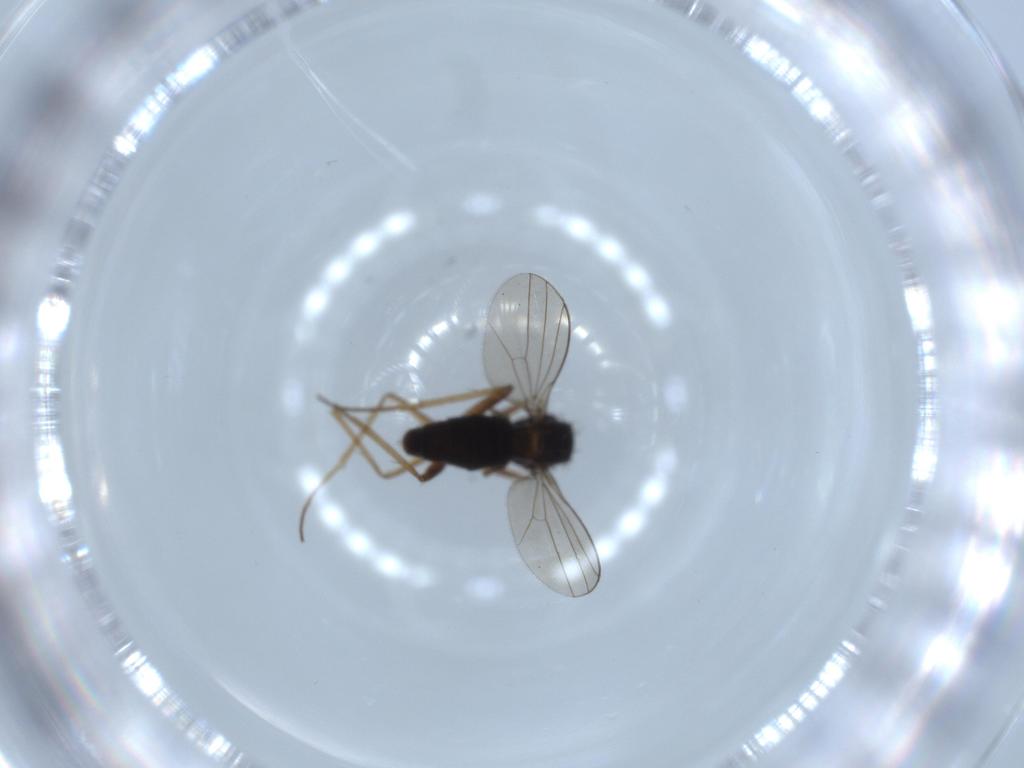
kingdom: Animalia
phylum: Arthropoda
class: Insecta
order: Diptera
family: Dolichopodidae
